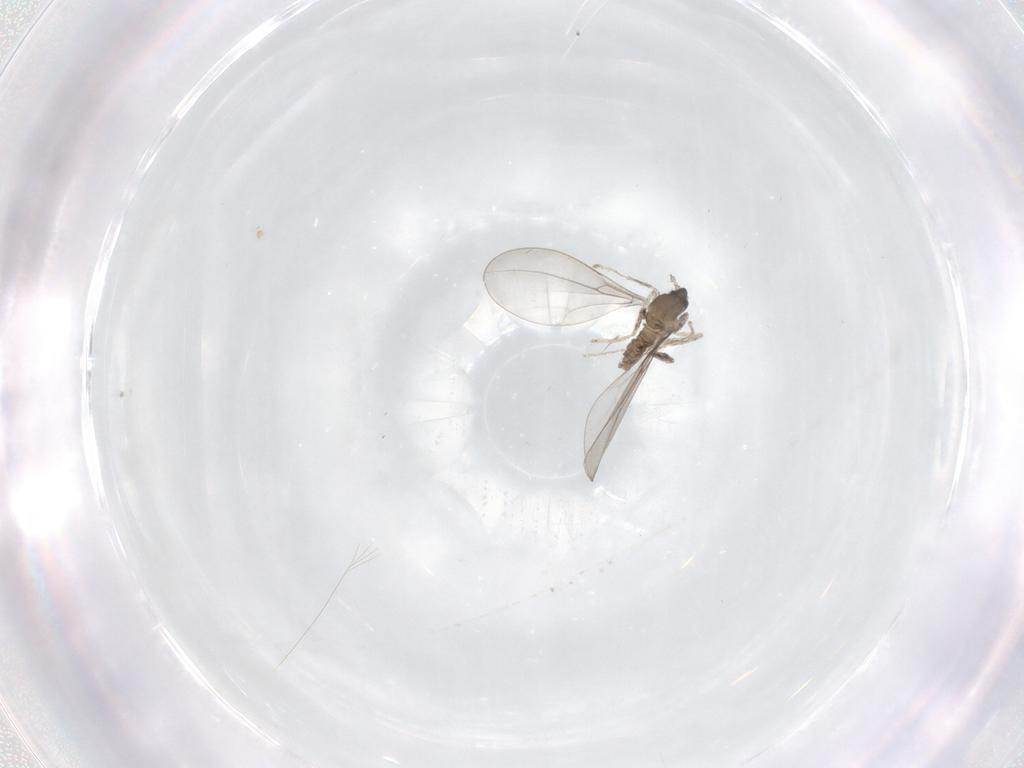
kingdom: Animalia
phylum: Arthropoda
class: Insecta
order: Diptera
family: Cecidomyiidae
